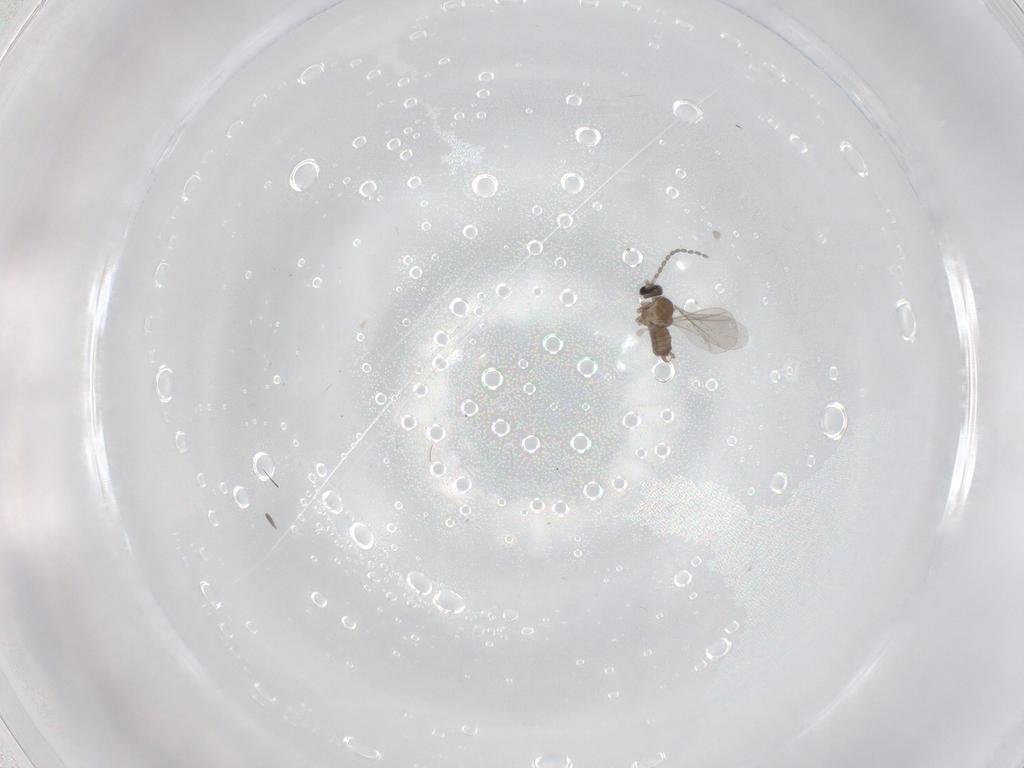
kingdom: Animalia
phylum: Arthropoda
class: Insecta
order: Diptera
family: Cecidomyiidae
